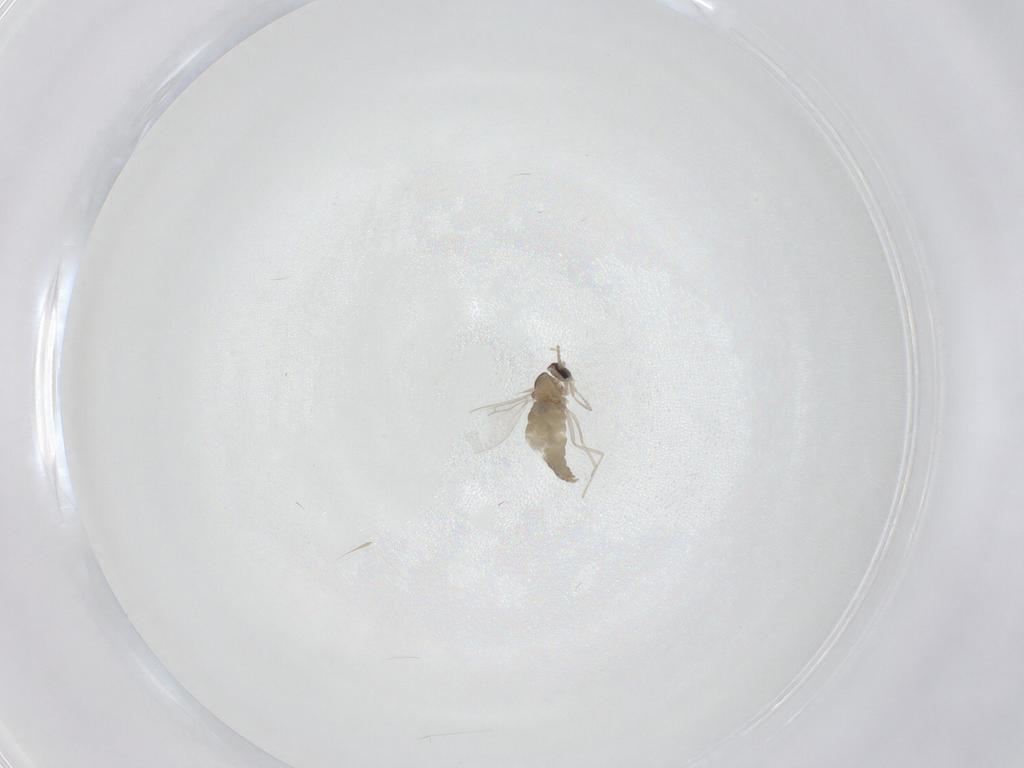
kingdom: Animalia
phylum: Arthropoda
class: Insecta
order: Diptera
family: Cecidomyiidae
